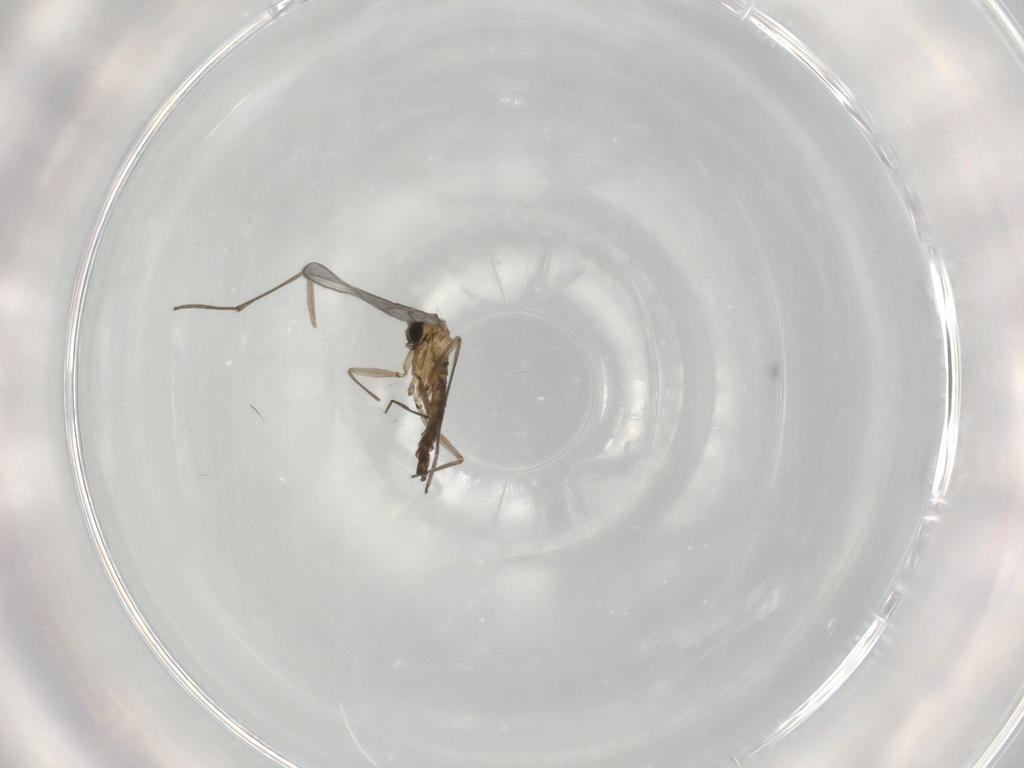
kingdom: Animalia
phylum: Arthropoda
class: Insecta
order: Diptera
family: Sciaridae
